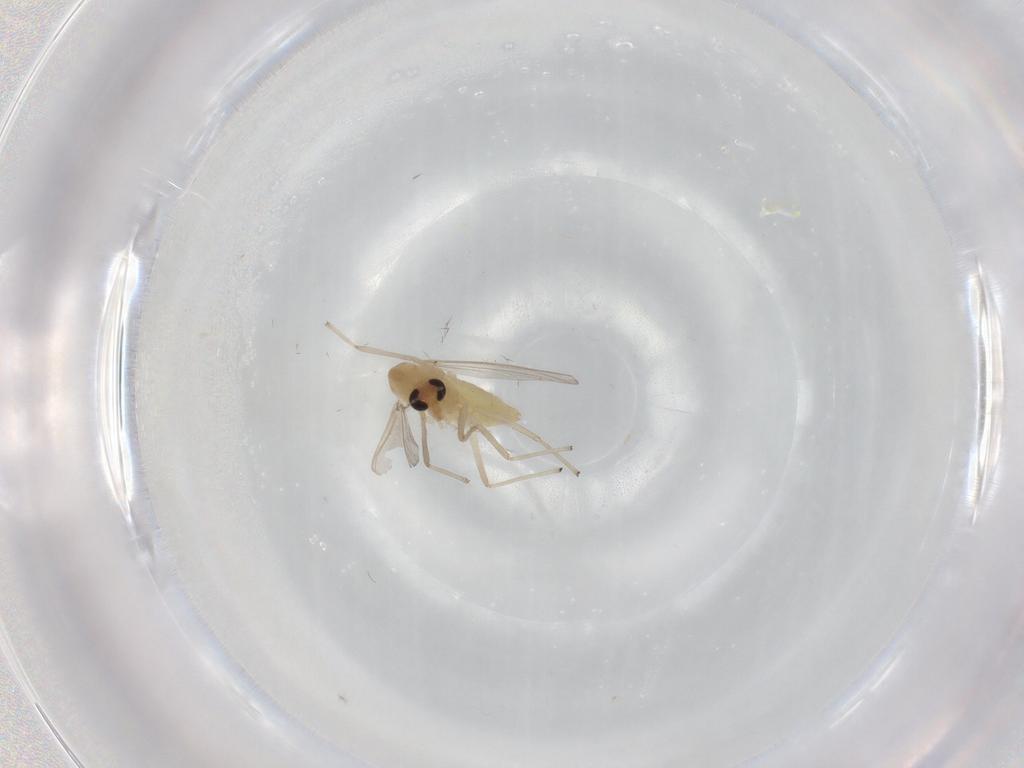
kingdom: Animalia
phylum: Arthropoda
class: Insecta
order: Diptera
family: Chironomidae
